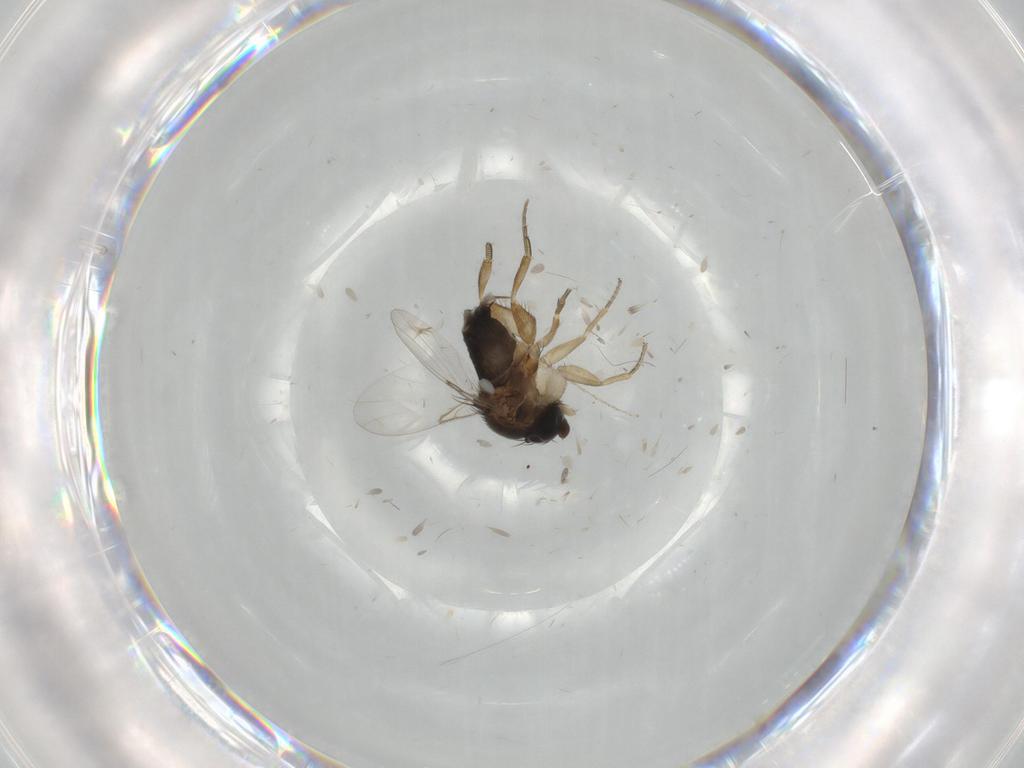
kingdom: Animalia
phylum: Arthropoda
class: Insecta
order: Diptera
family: Cecidomyiidae
